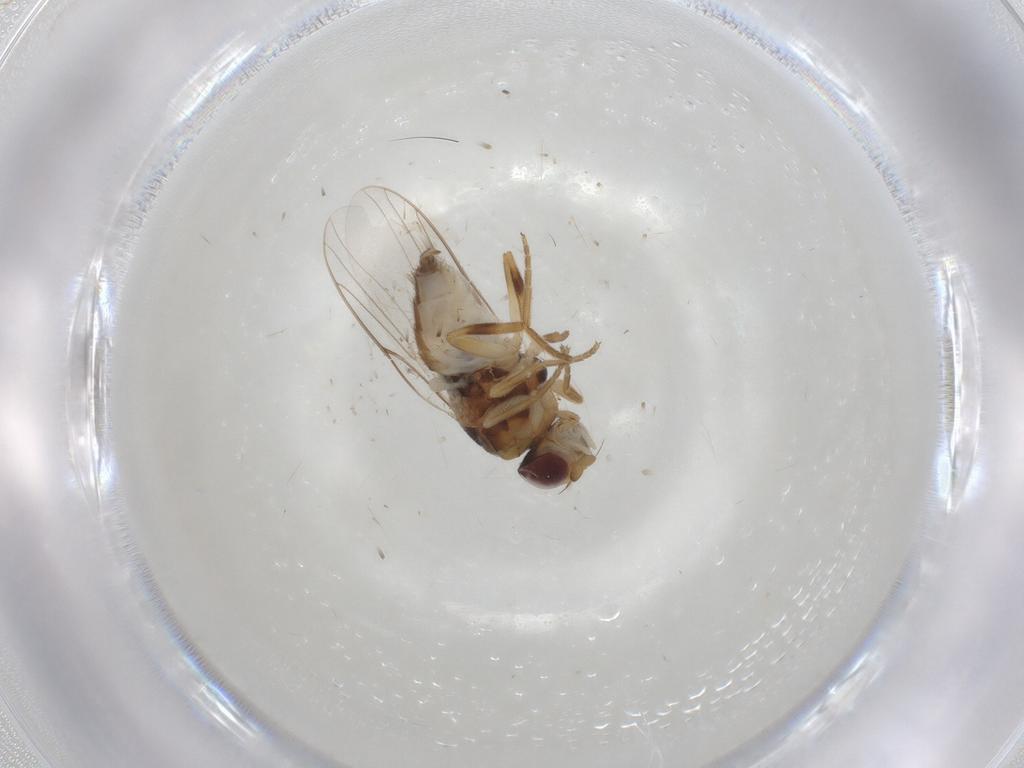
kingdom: Animalia
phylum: Arthropoda
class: Insecta
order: Diptera
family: Chloropidae
